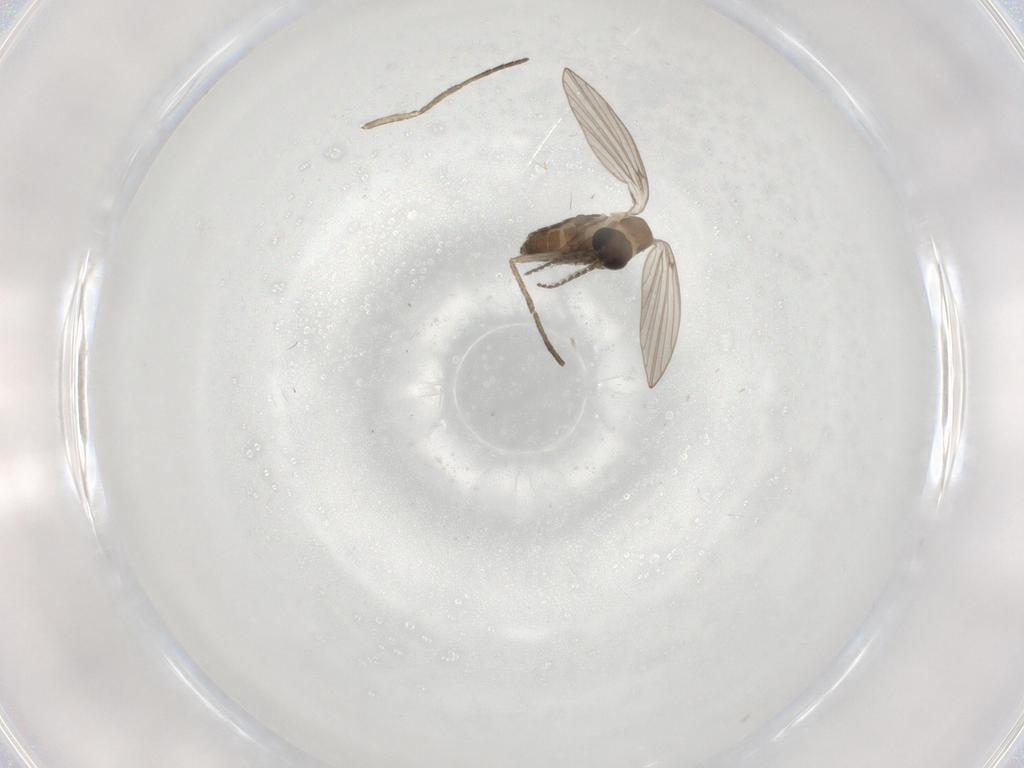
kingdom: Animalia
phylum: Arthropoda
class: Insecta
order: Diptera
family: Psychodidae
